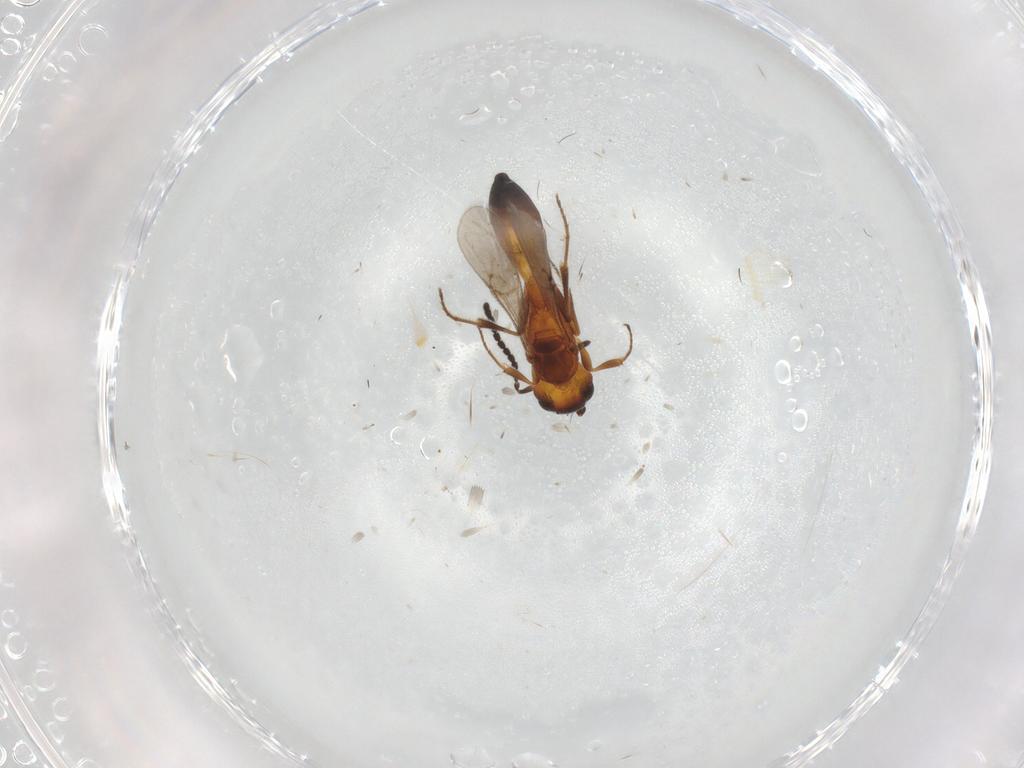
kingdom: Animalia
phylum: Arthropoda
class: Insecta
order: Hymenoptera
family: Scelionidae
